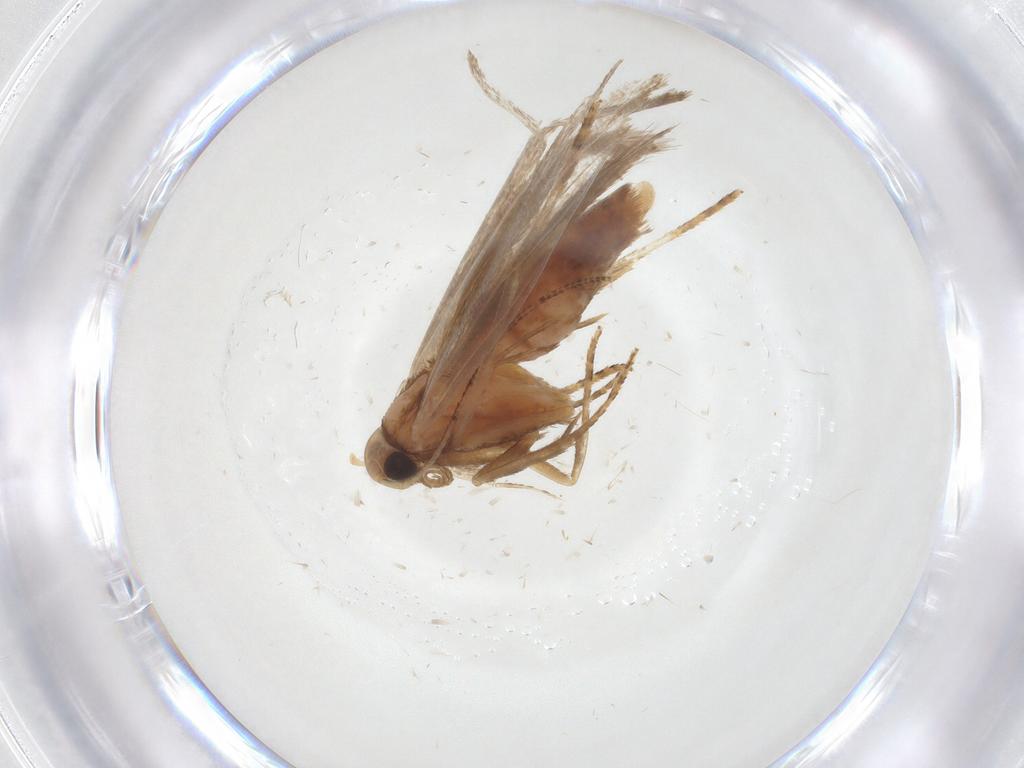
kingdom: Animalia
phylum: Arthropoda
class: Insecta
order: Lepidoptera
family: Gelechiidae
